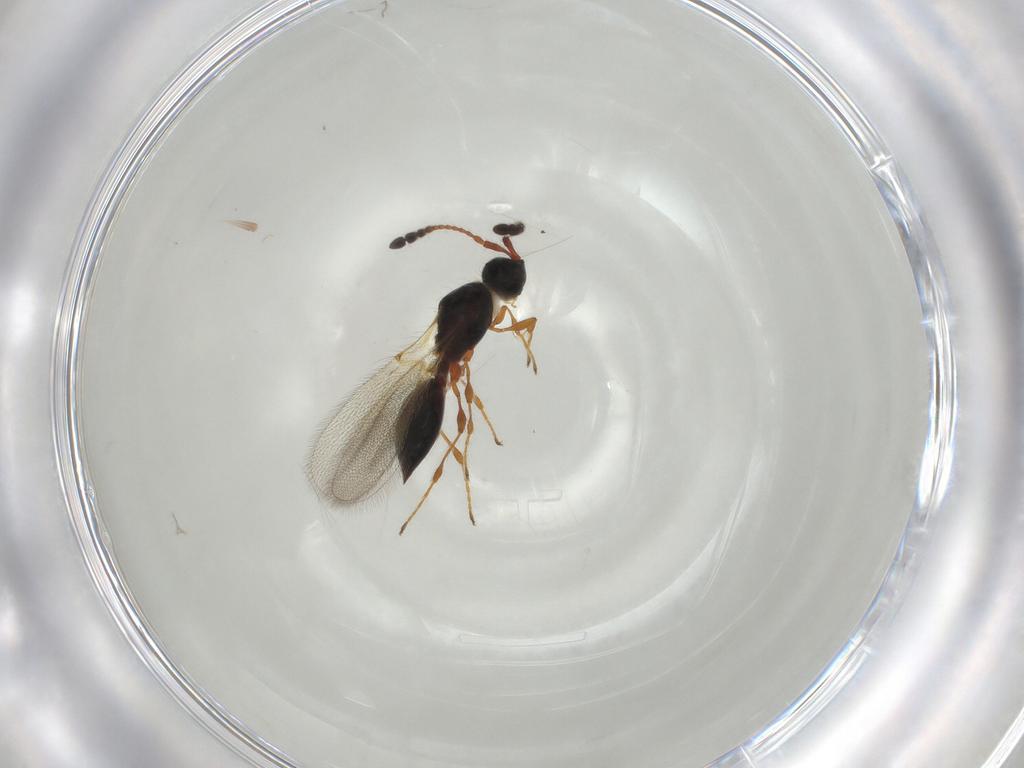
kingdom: Animalia
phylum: Arthropoda
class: Insecta
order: Hymenoptera
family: Diapriidae
